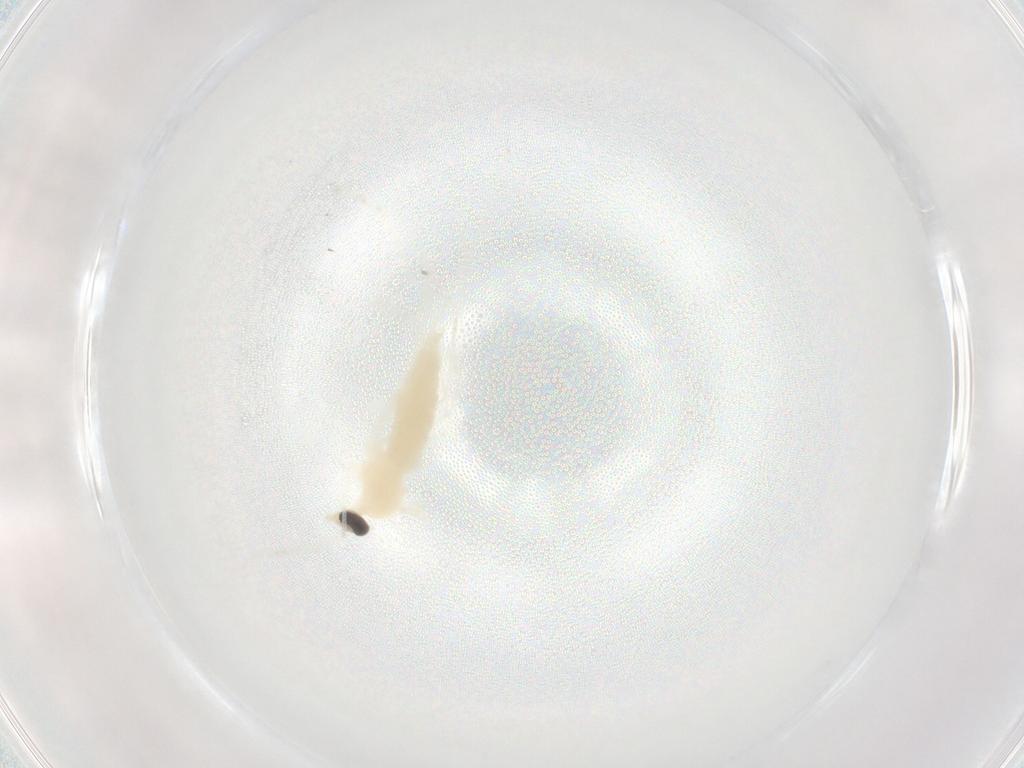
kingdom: Animalia
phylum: Arthropoda
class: Insecta
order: Diptera
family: Cecidomyiidae
